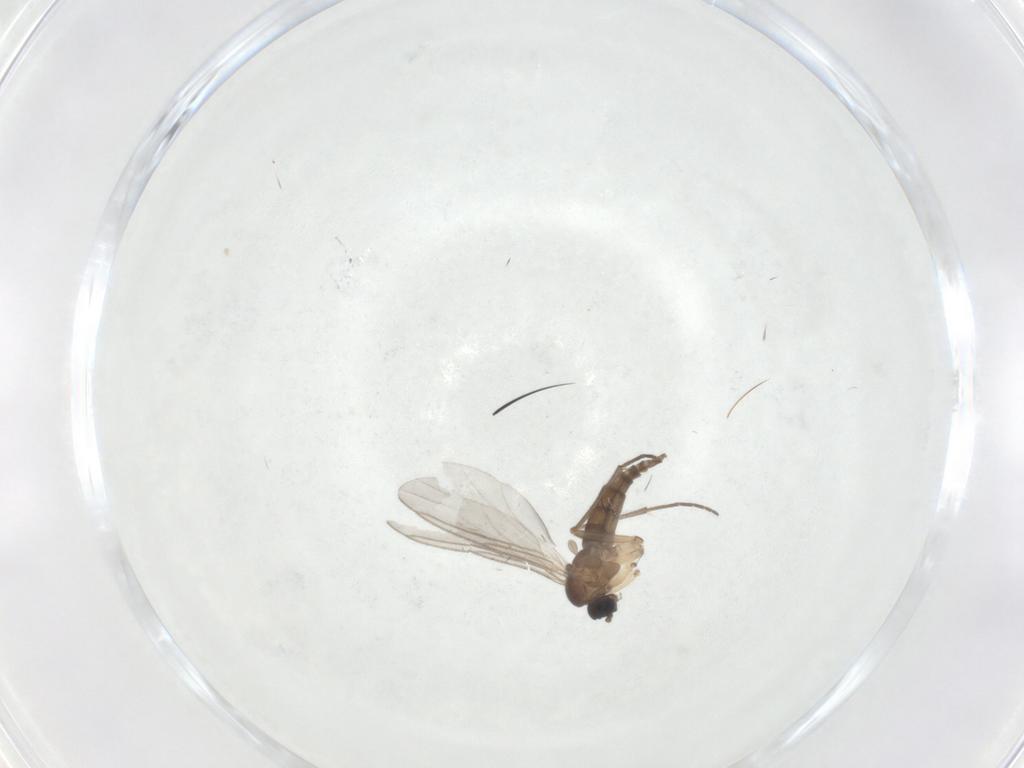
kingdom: Animalia
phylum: Arthropoda
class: Insecta
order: Diptera
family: Sciaridae
